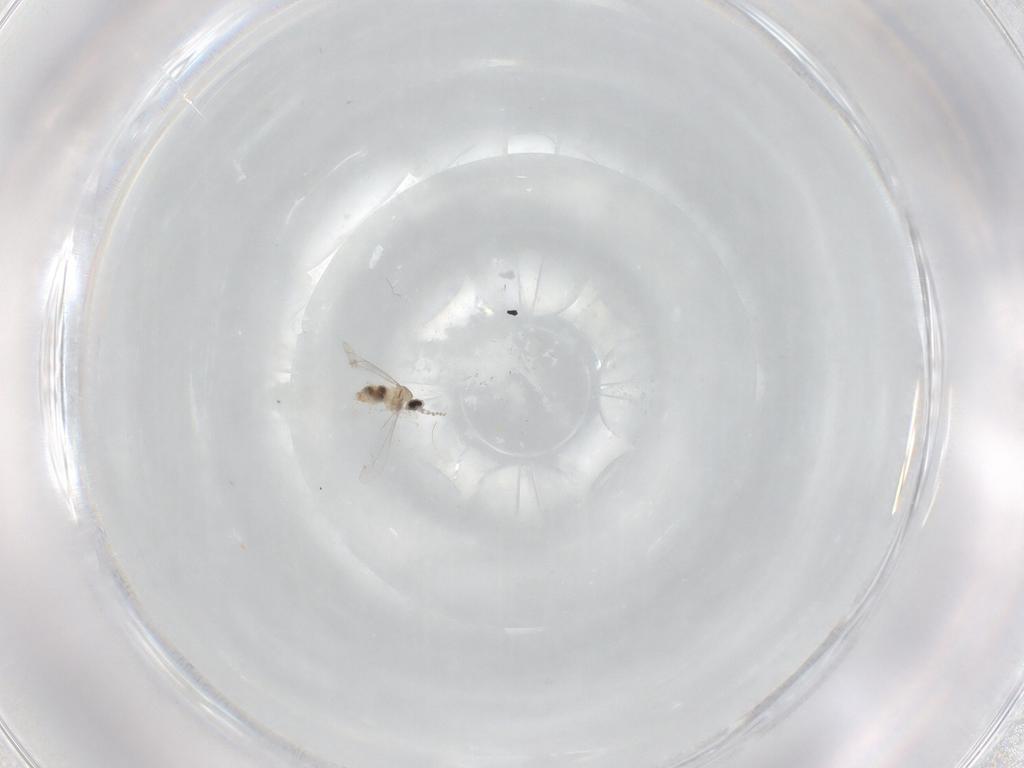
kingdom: Animalia
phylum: Arthropoda
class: Insecta
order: Diptera
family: Cecidomyiidae
